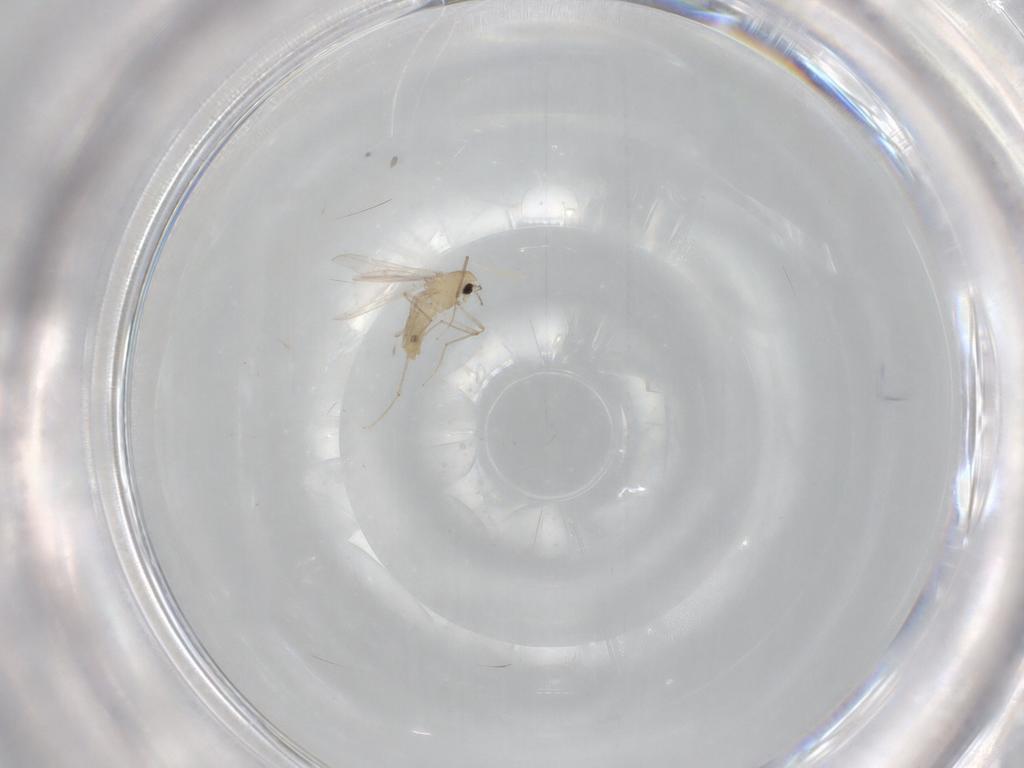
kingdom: Animalia
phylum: Arthropoda
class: Insecta
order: Diptera
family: Chironomidae
